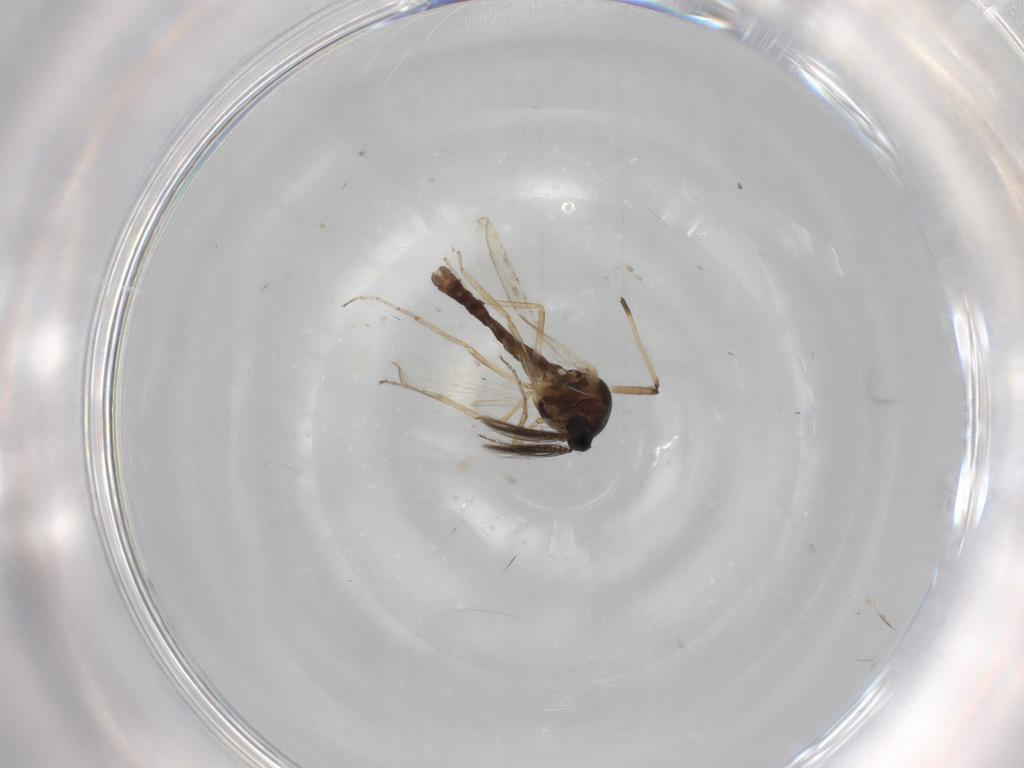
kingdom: Animalia
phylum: Arthropoda
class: Insecta
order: Diptera
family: Ceratopogonidae
